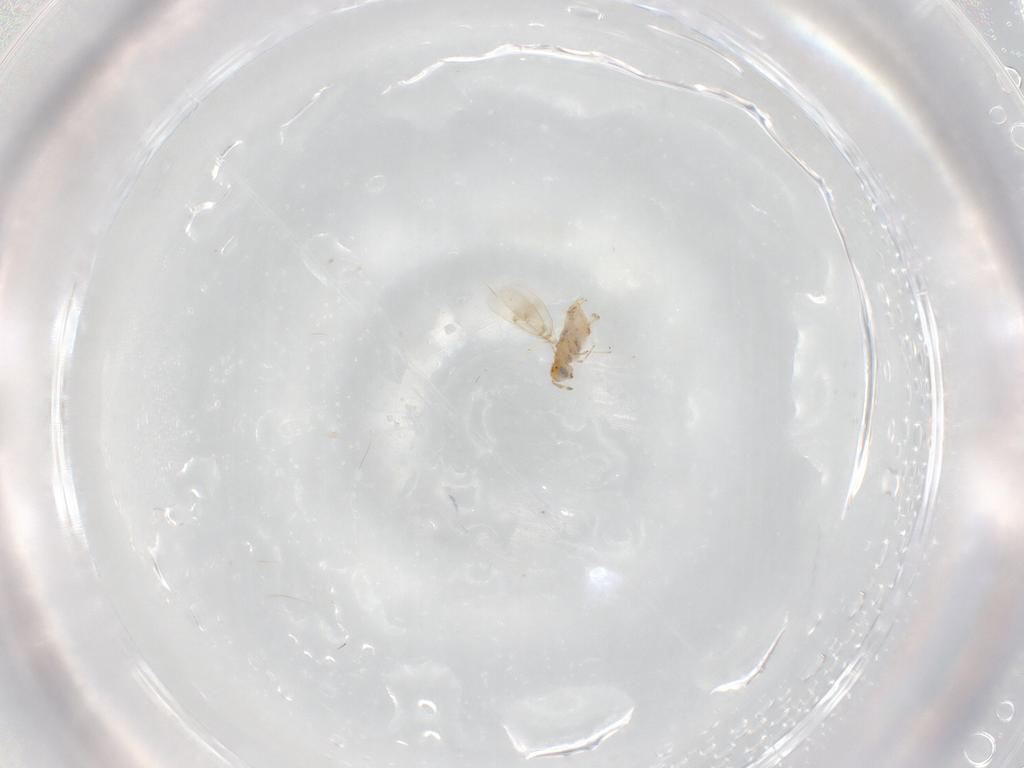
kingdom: Animalia
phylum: Arthropoda
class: Insecta
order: Hymenoptera
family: Aphelinidae
